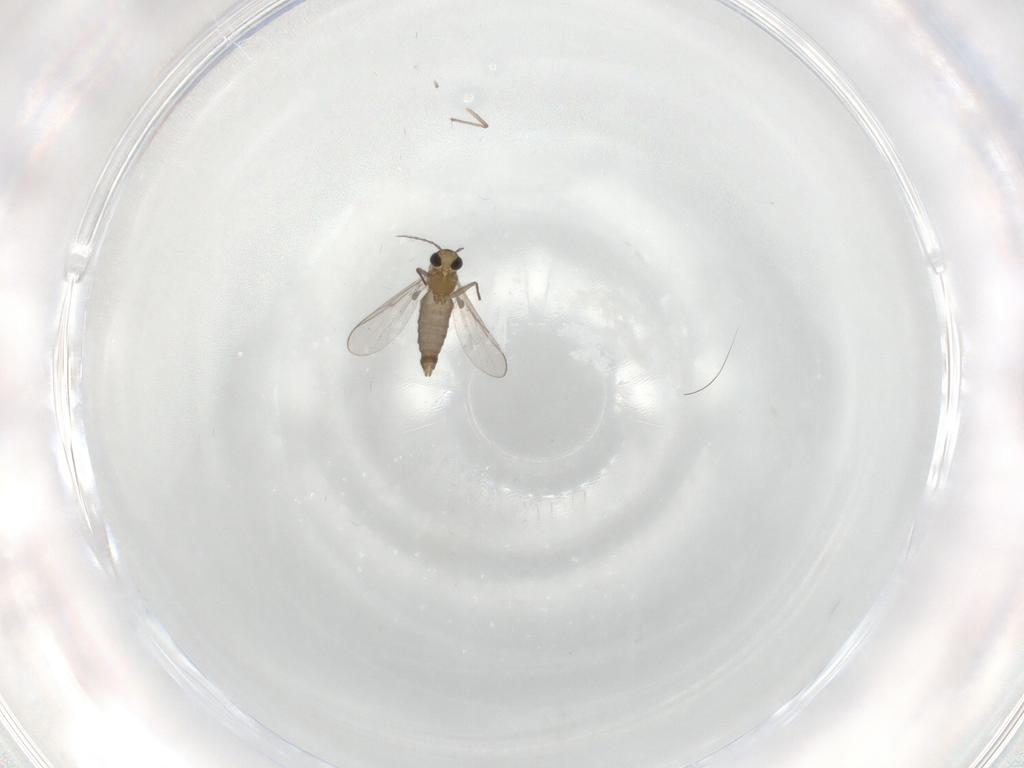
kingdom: Animalia
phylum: Arthropoda
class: Insecta
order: Diptera
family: Chironomidae
